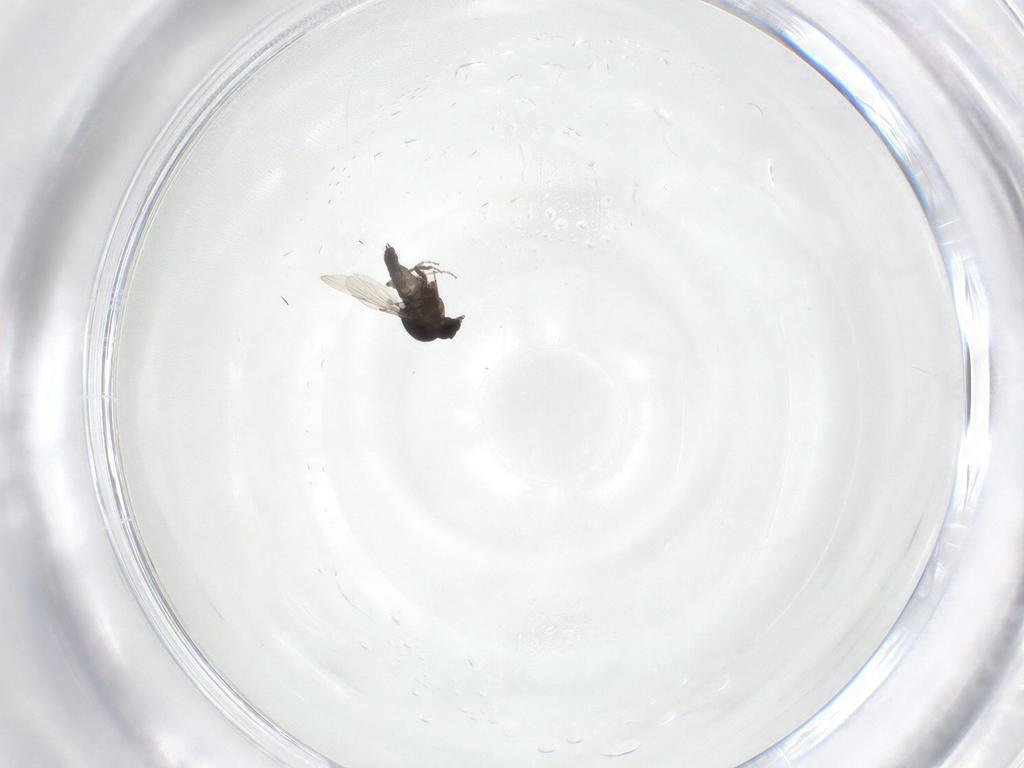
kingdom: Animalia
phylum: Arthropoda
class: Insecta
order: Diptera
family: Ceratopogonidae
